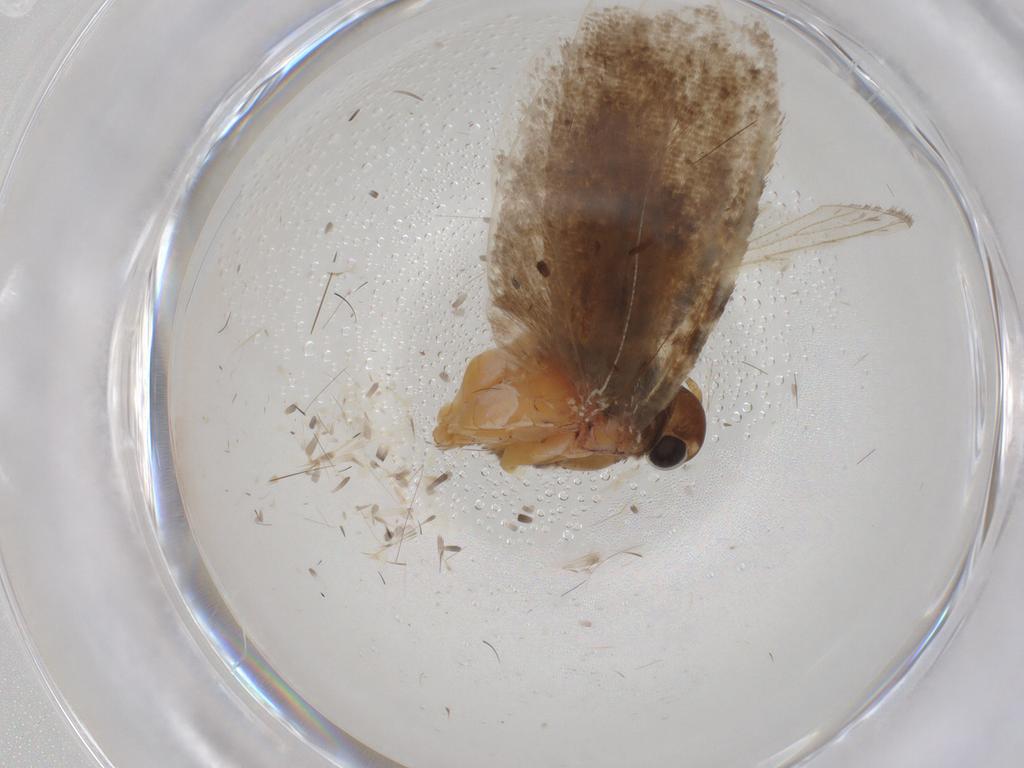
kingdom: Animalia
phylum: Arthropoda
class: Insecta
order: Lepidoptera
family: Gelechiidae
